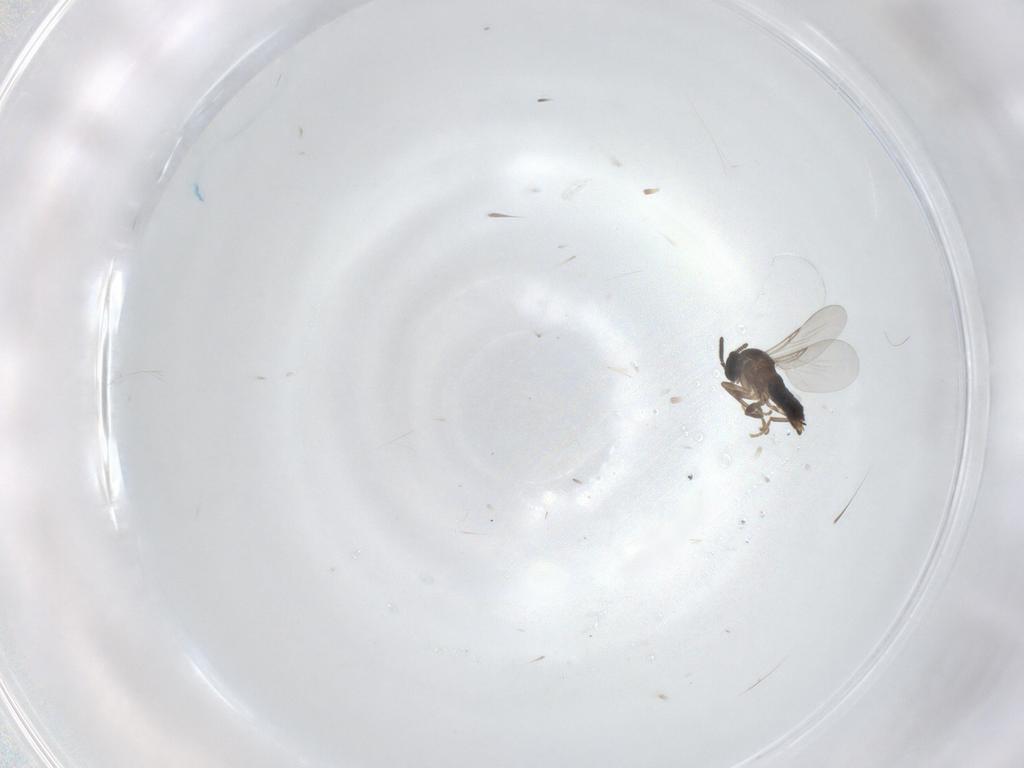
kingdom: Animalia
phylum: Arthropoda
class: Insecta
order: Diptera
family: Scatopsidae
